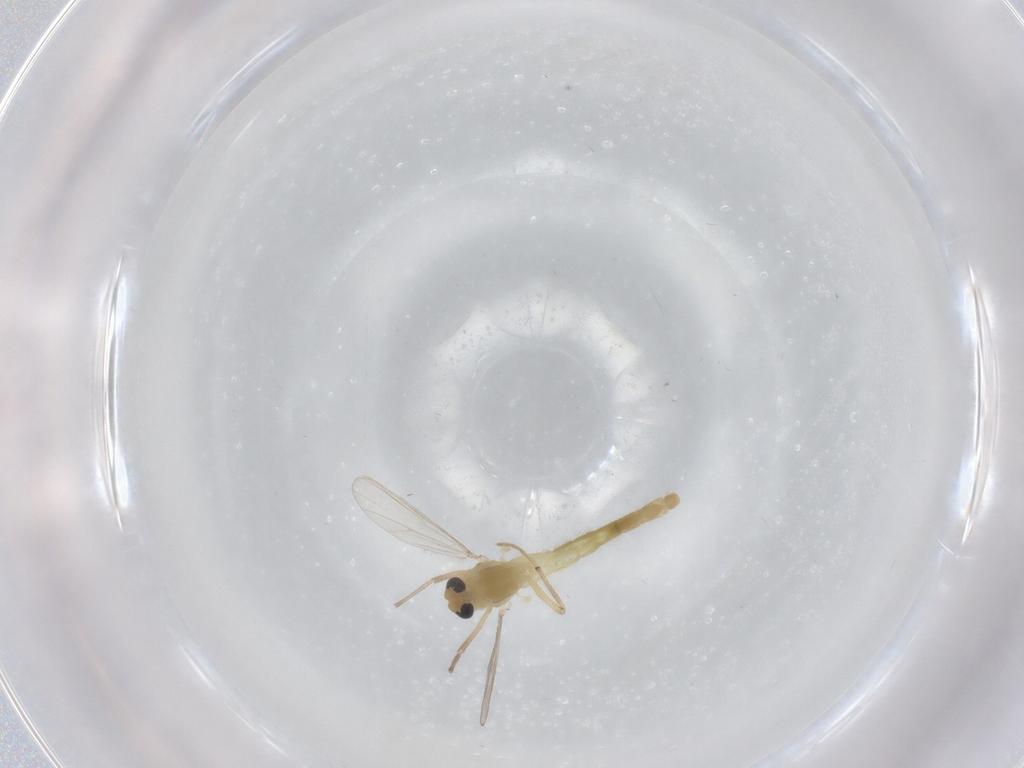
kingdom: Animalia
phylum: Arthropoda
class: Insecta
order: Diptera
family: Chironomidae
